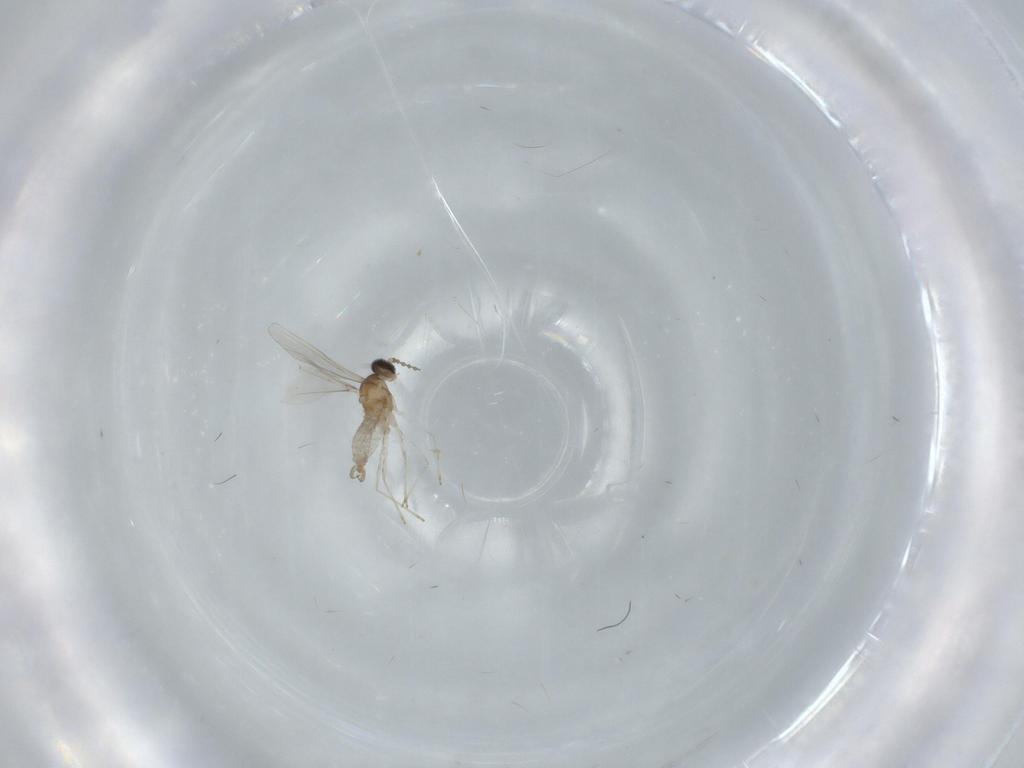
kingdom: Animalia
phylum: Arthropoda
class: Insecta
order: Diptera
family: Cecidomyiidae
